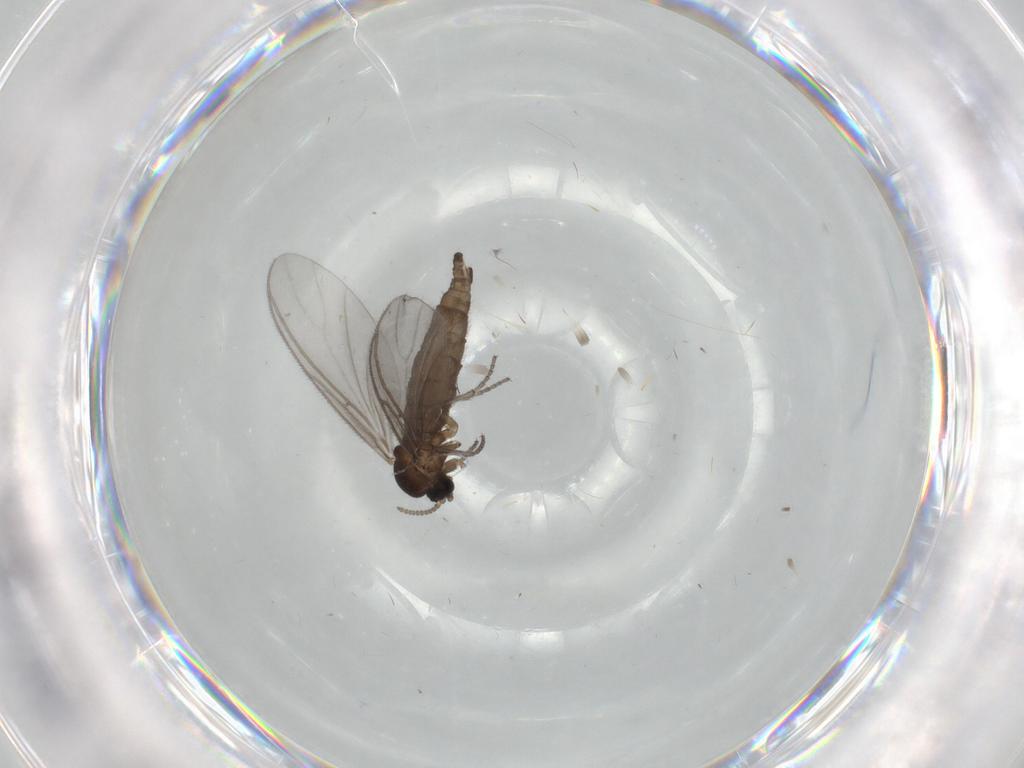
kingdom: Animalia
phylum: Arthropoda
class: Insecta
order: Diptera
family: Sciaridae
